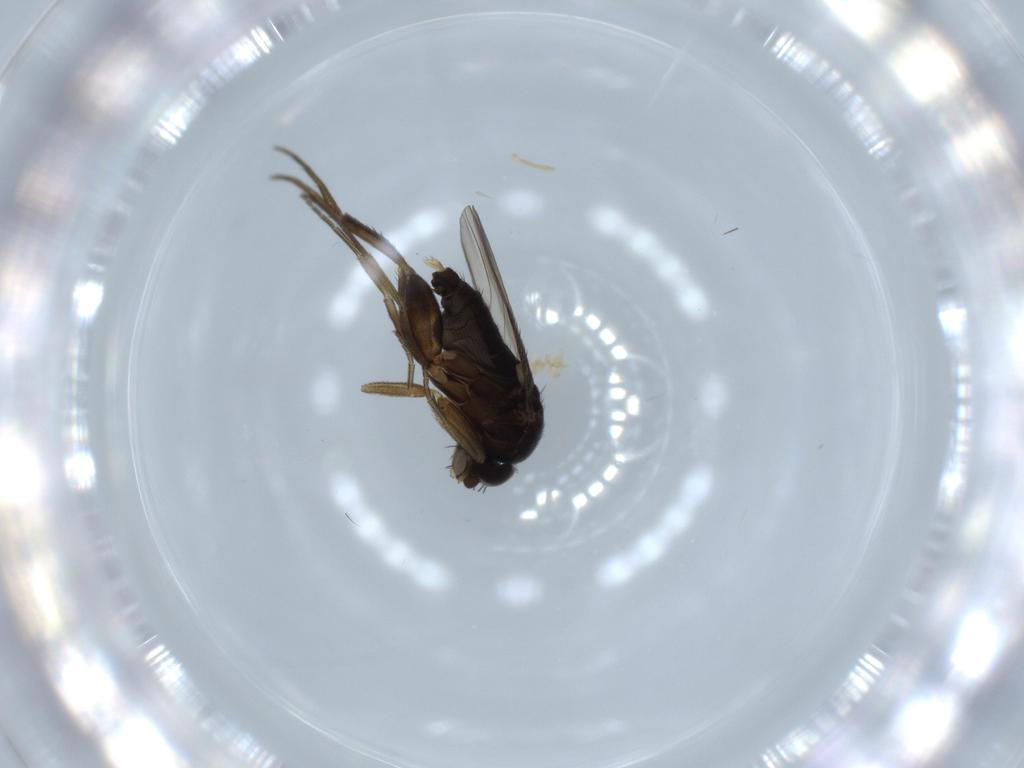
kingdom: Animalia
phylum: Arthropoda
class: Insecta
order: Diptera
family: Phoridae
